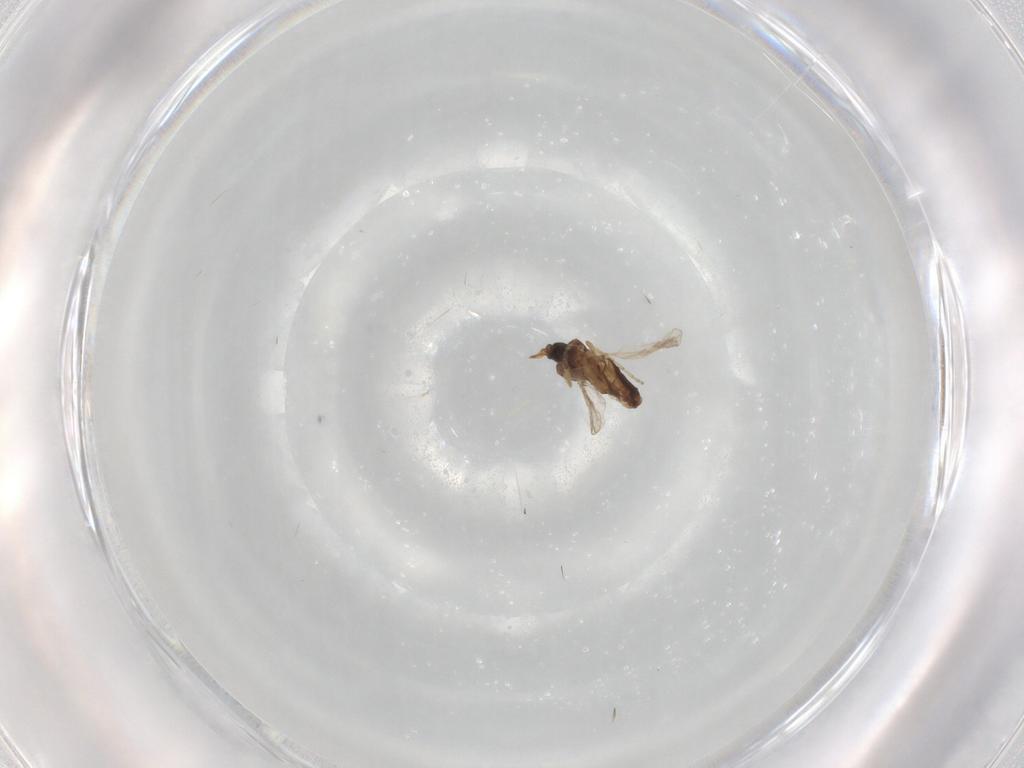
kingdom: Animalia
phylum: Arthropoda
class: Insecta
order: Diptera
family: Ceratopogonidae
